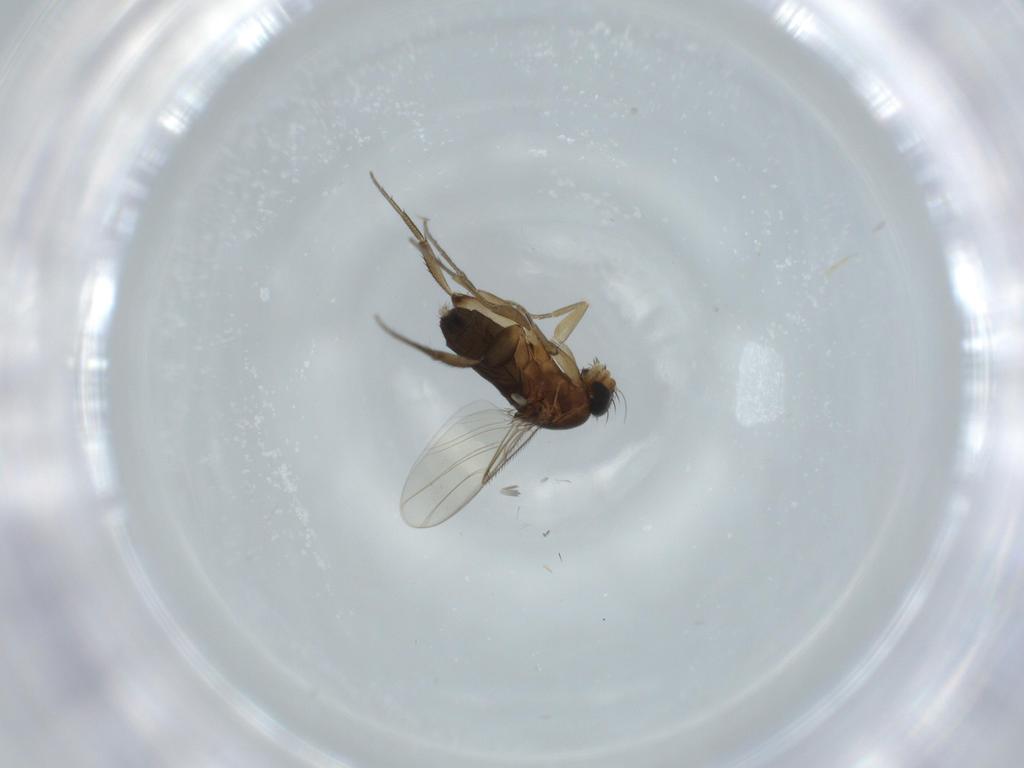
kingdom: Animalia
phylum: Arthropoda
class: Insecta
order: Diptera
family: Phoridae
